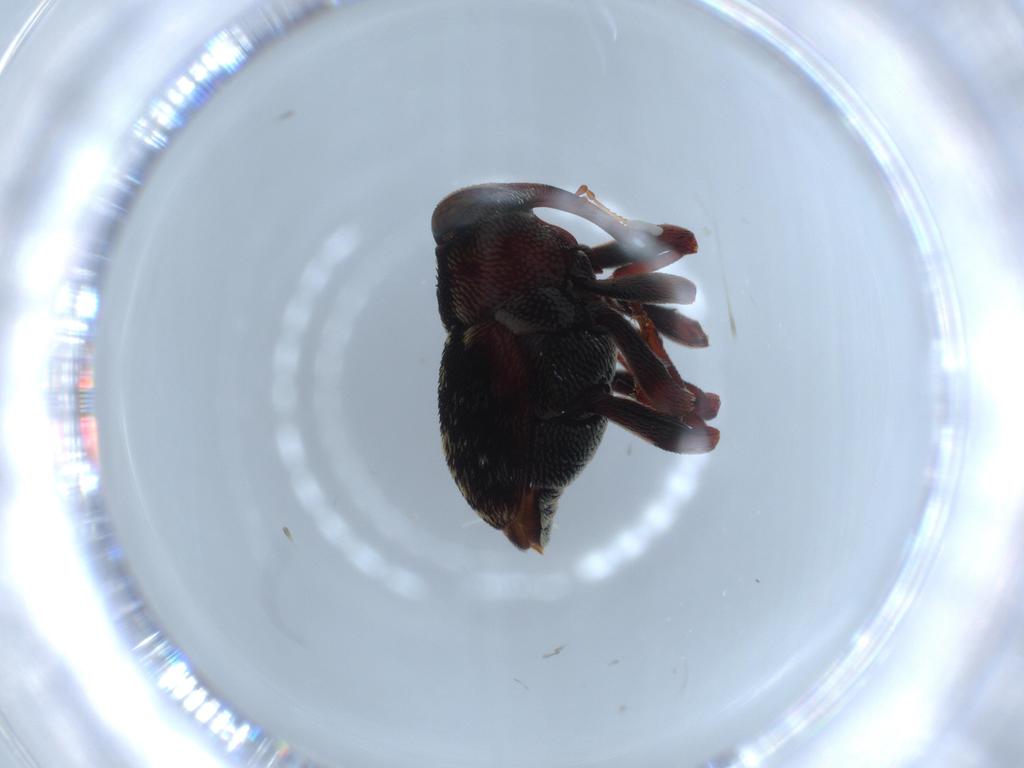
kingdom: Animalia
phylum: Arthropoda
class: Insecta
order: Coleoptera
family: Curculionidae
